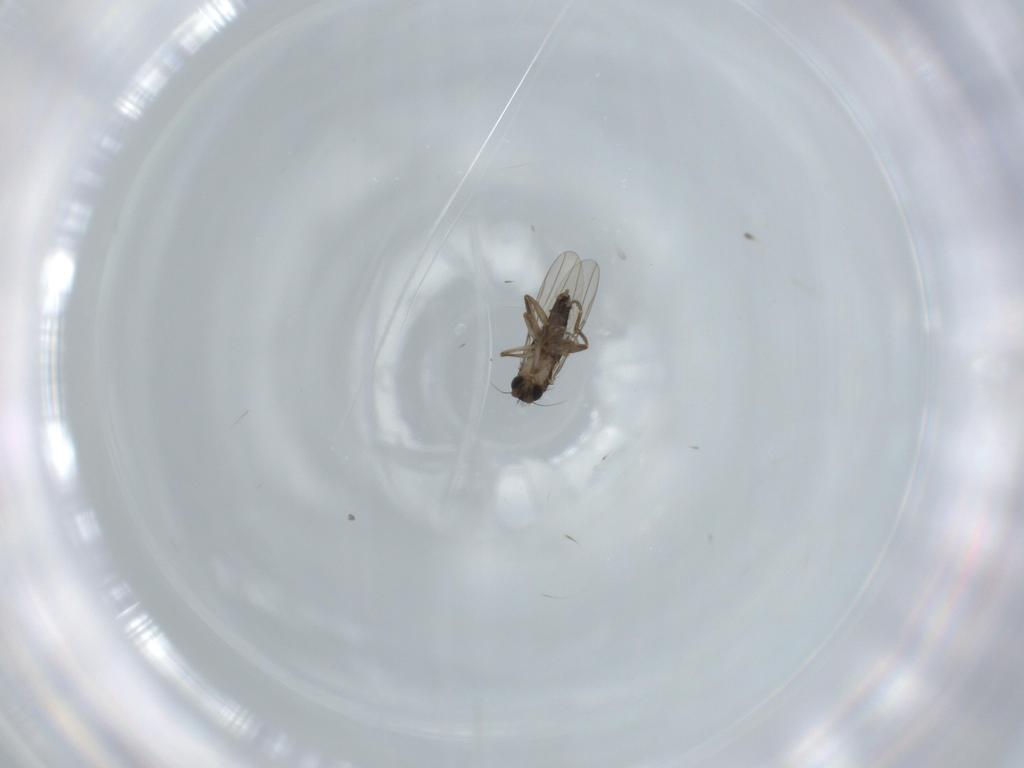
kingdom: Animalia
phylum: Arthropoda
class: Insecta
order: Diptera
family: Phoridae
